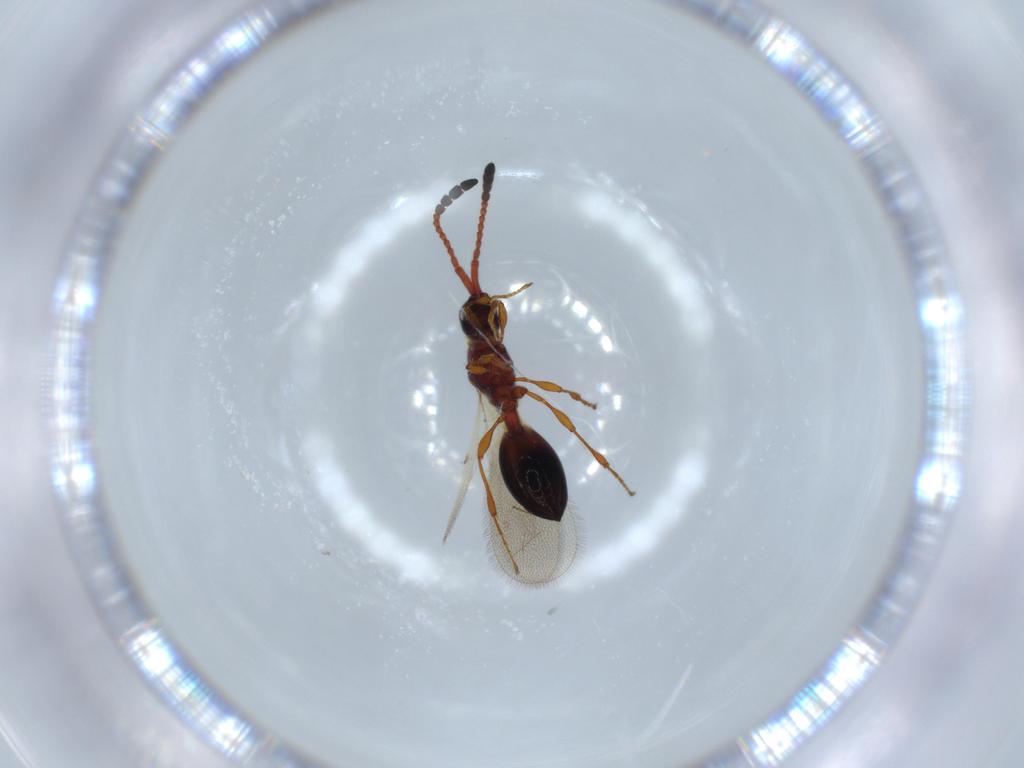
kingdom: Animalia
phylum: Arthropoda
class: Insecta
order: Hymenoptera
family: Diapriidae
